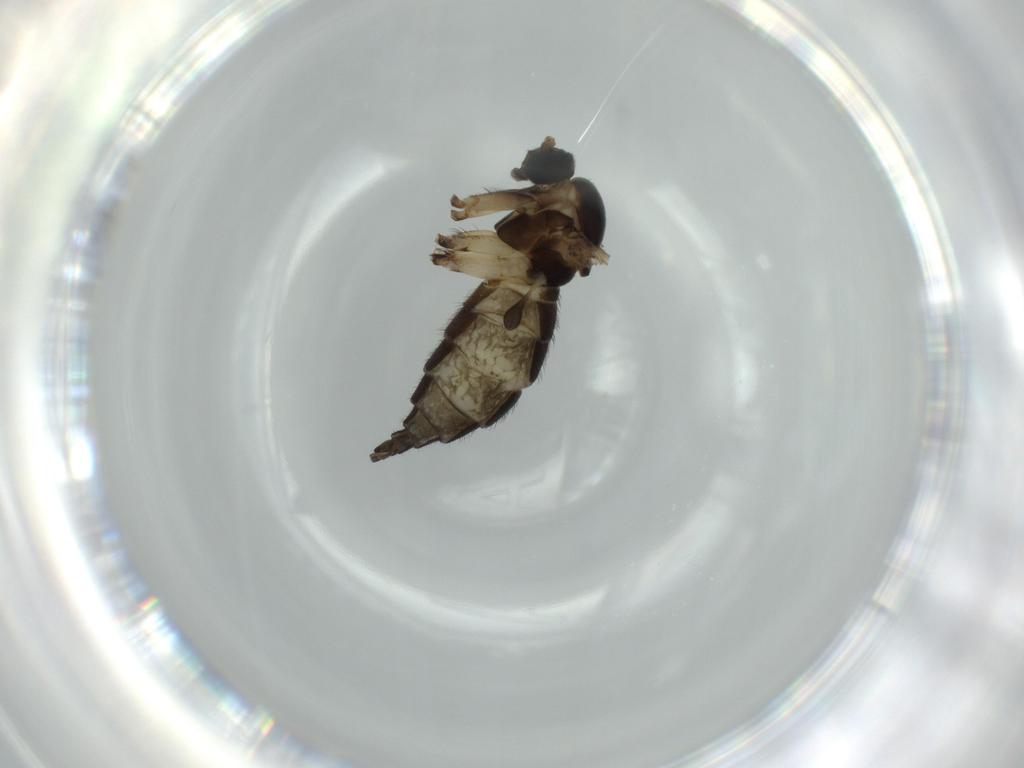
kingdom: Animalia
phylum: Arthropoda
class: Insecta
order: Diptera
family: Sciaridae
